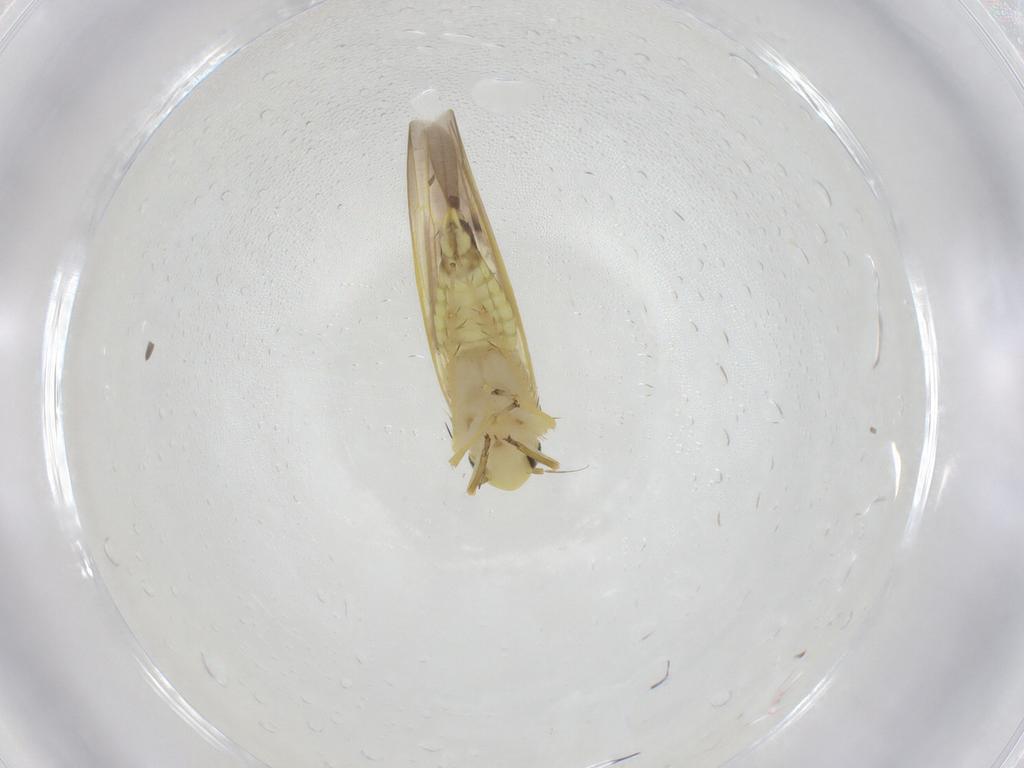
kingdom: Animalia
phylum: Arthropoda
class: Insecta
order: Hemiptera
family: Cicadellidae
